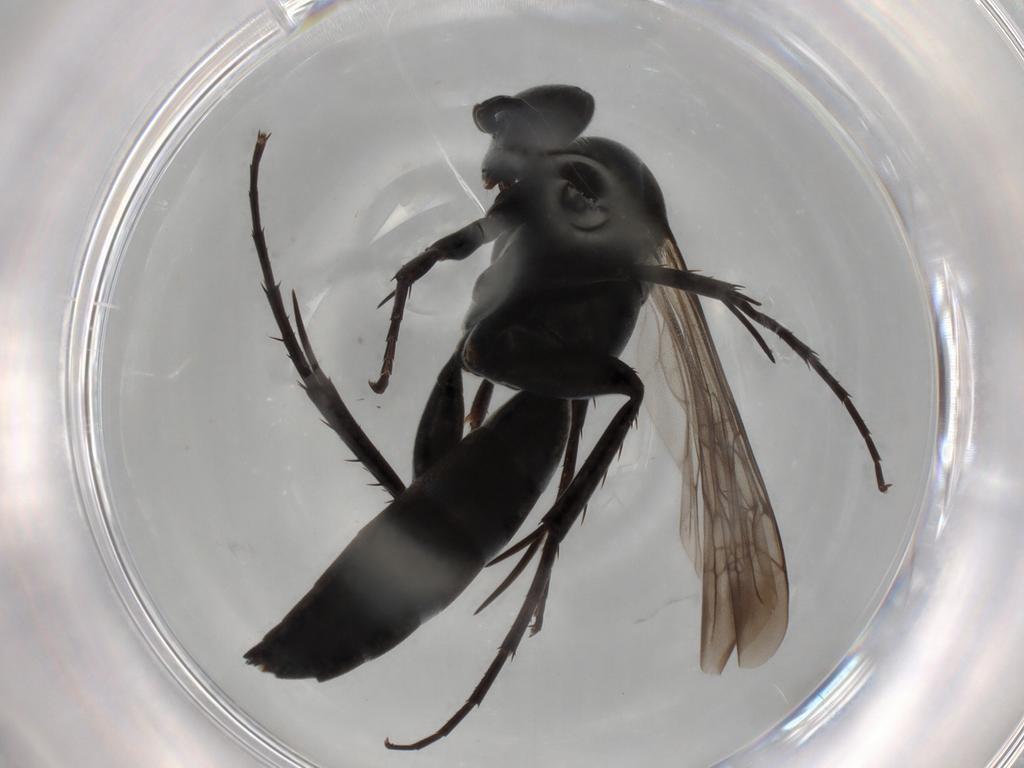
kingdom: Animalia
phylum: Arthropoda
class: Insecta
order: Hymenoptera
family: Pompilidae
